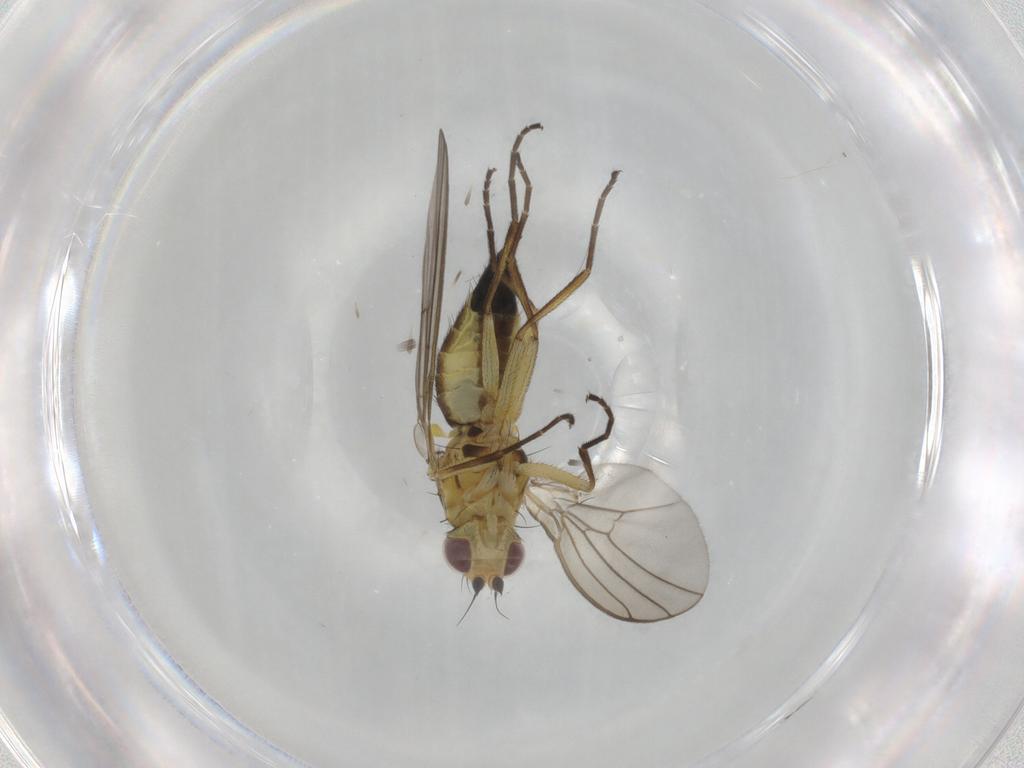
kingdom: Animalia
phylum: Arthropoda
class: Insecta
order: Diptera
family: Agromyzidae
